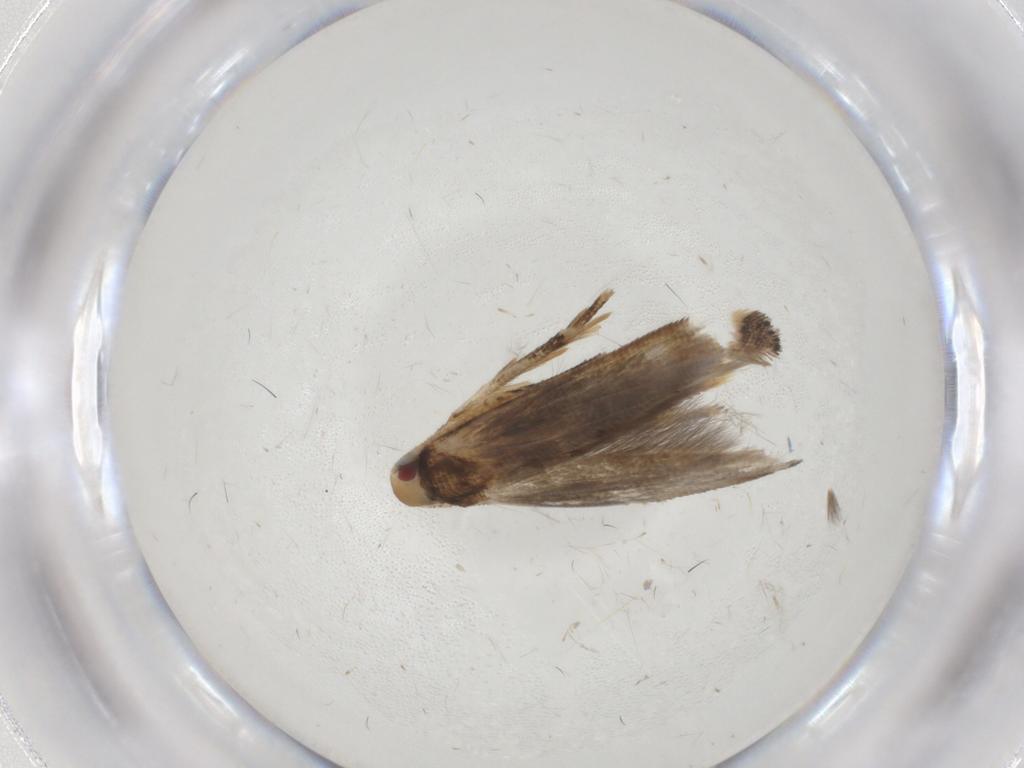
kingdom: Animalia
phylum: Arthropoda
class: Insecta
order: Lepidoptera
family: Momphidae
